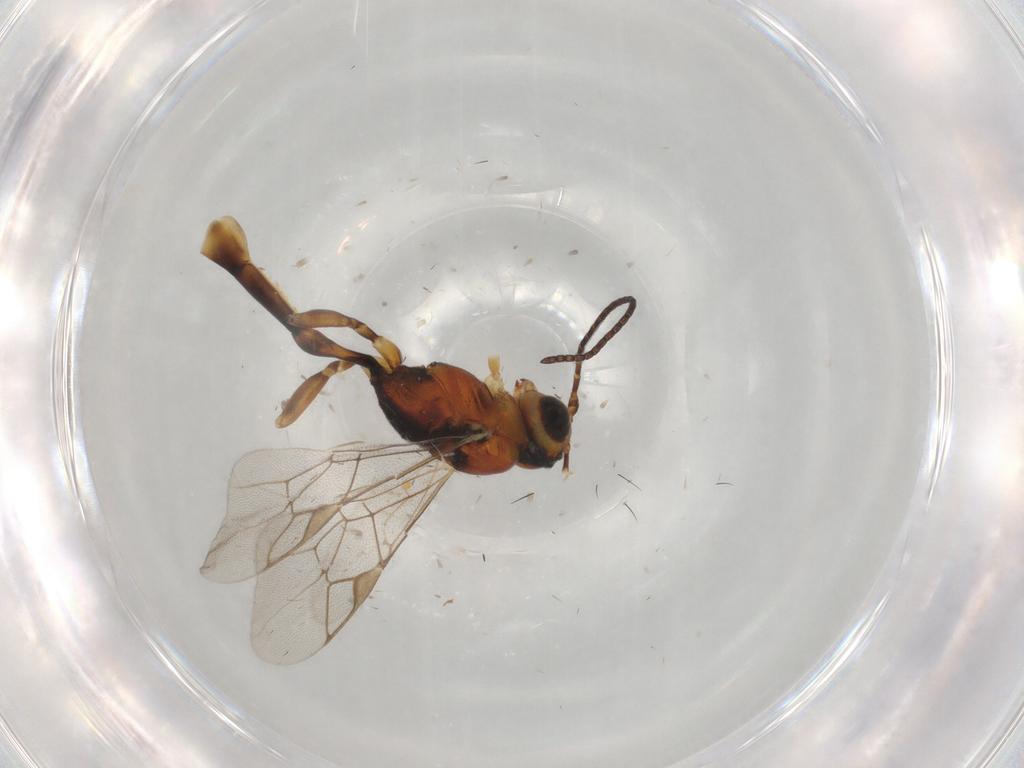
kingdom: Animalia
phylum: Arthropoda
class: Insecta
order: Hymenoptera
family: Ichneumonidae
